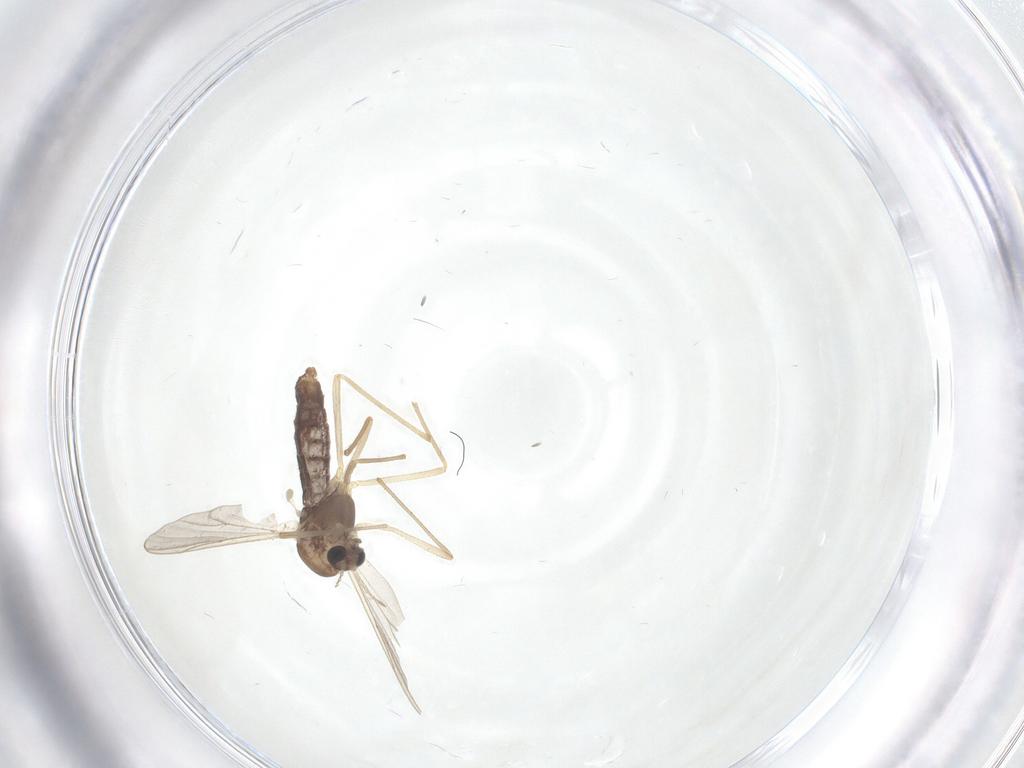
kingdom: Animalia
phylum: Arthropoda
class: Insecta
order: Diptera
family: Chironomidae
